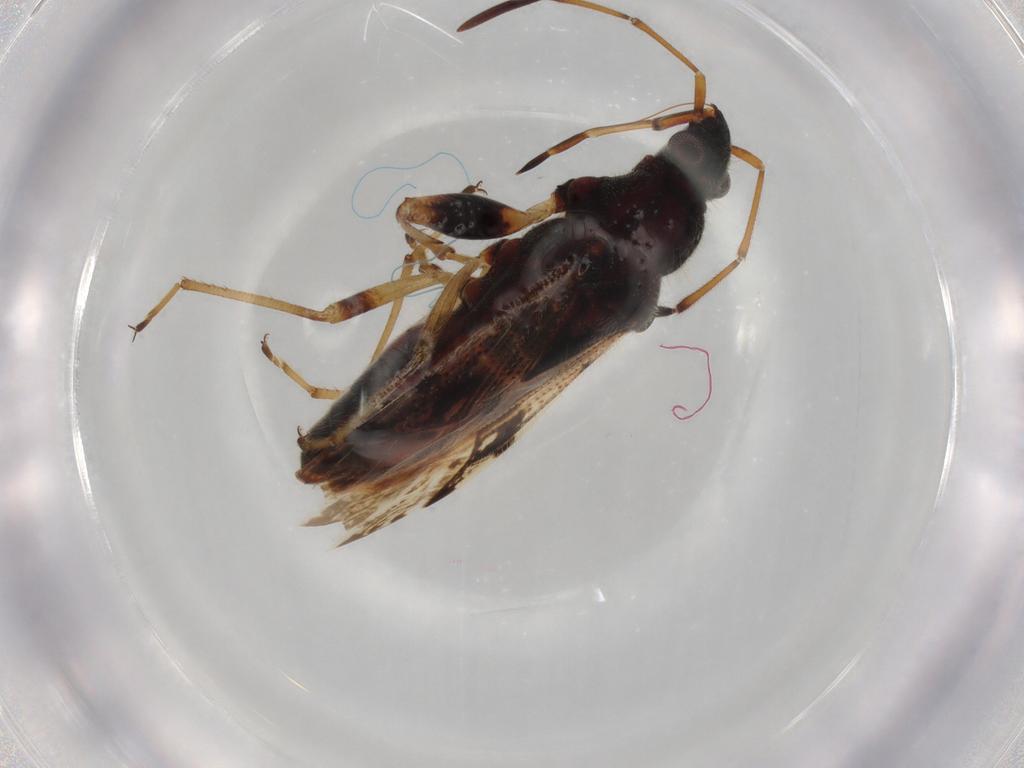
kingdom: Animalia
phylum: Arthropoda
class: Insecta
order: Hemiptera
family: Rhyparochromidae
